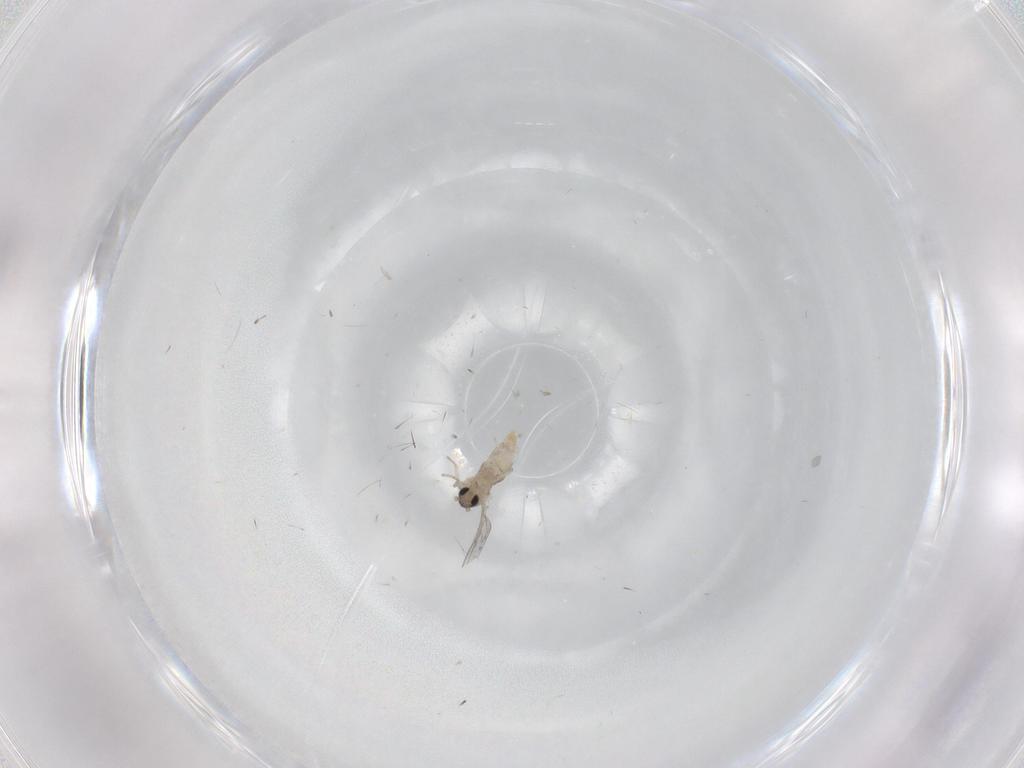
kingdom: Animalia
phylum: Arthropoda
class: Insecta
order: Diptera
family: Cecidomyiidae
